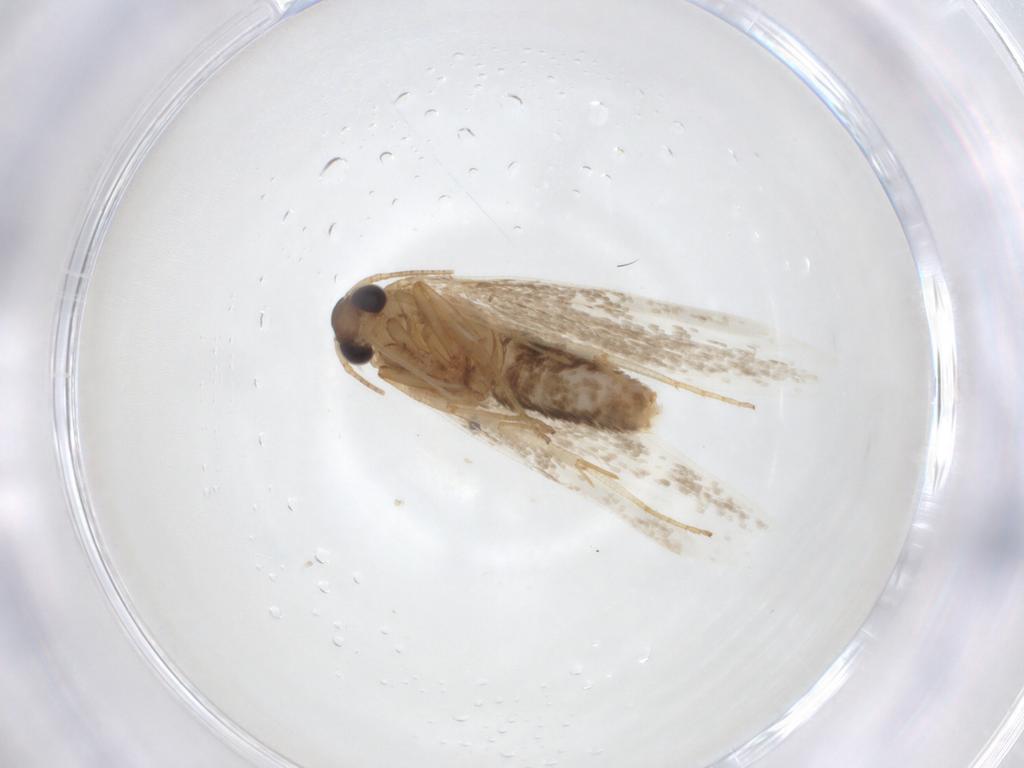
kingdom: Animalia
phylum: Arthropoda
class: Insecta
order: Lepidoptera
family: Blastobasidae
